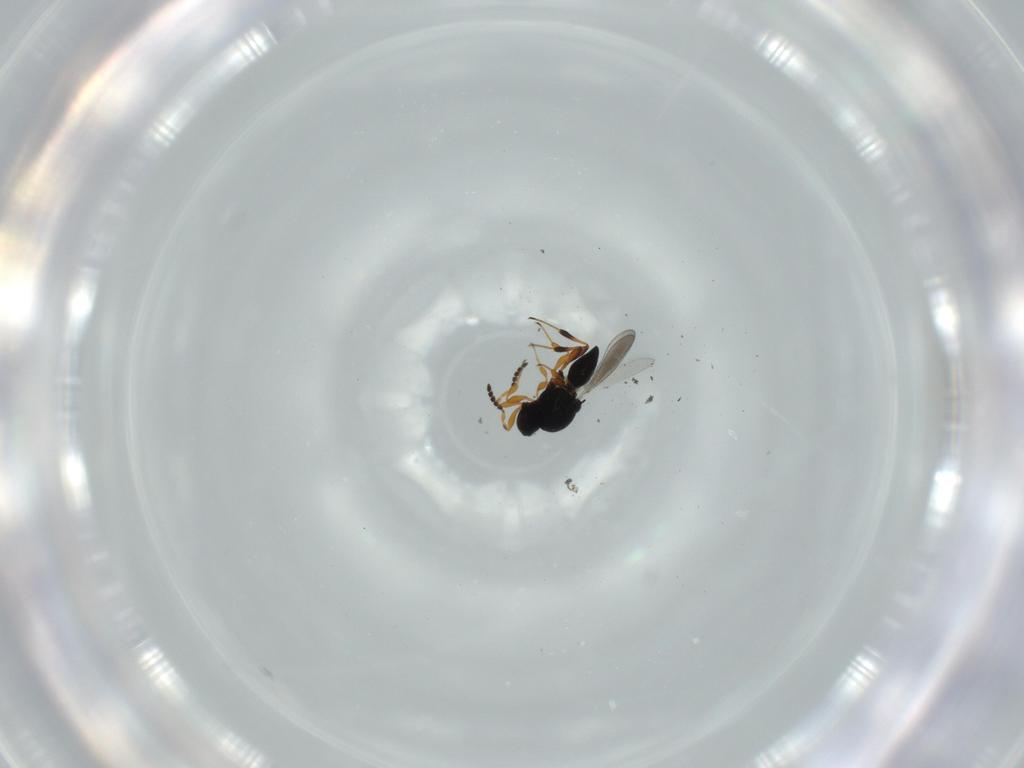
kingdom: Animalia
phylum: Arthropoda
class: Insecta
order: Hymenoptera
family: Platygastridae
